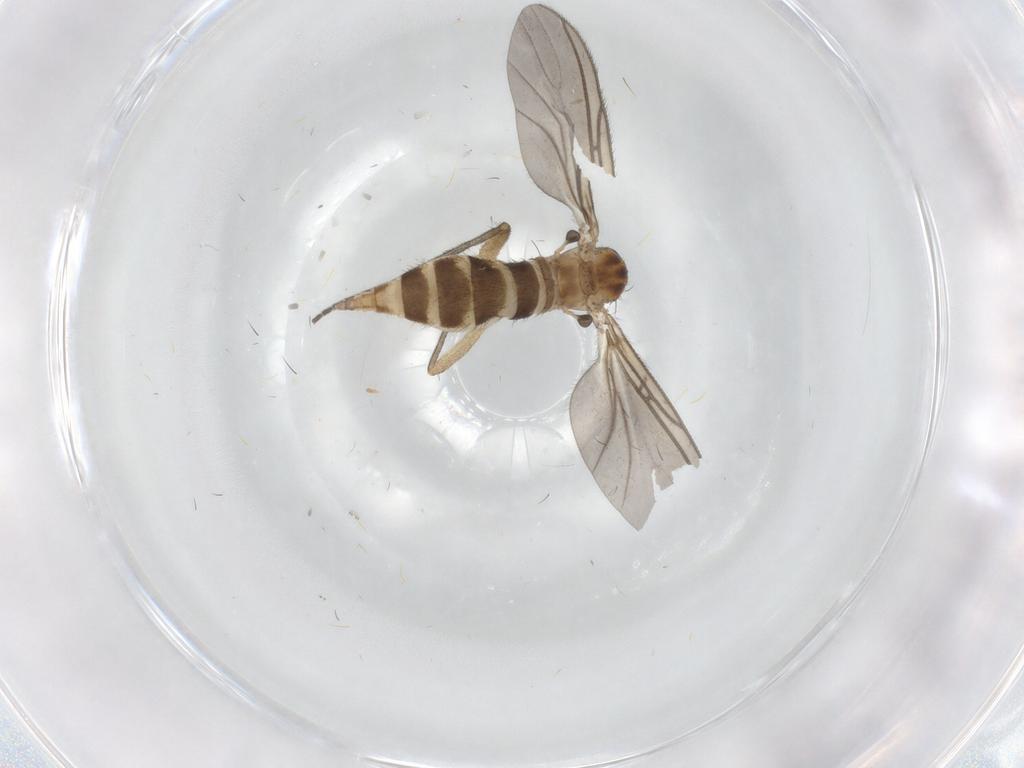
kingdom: Animalia
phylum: Arthropoda
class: Insecta
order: Diptera
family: Sciaridae
